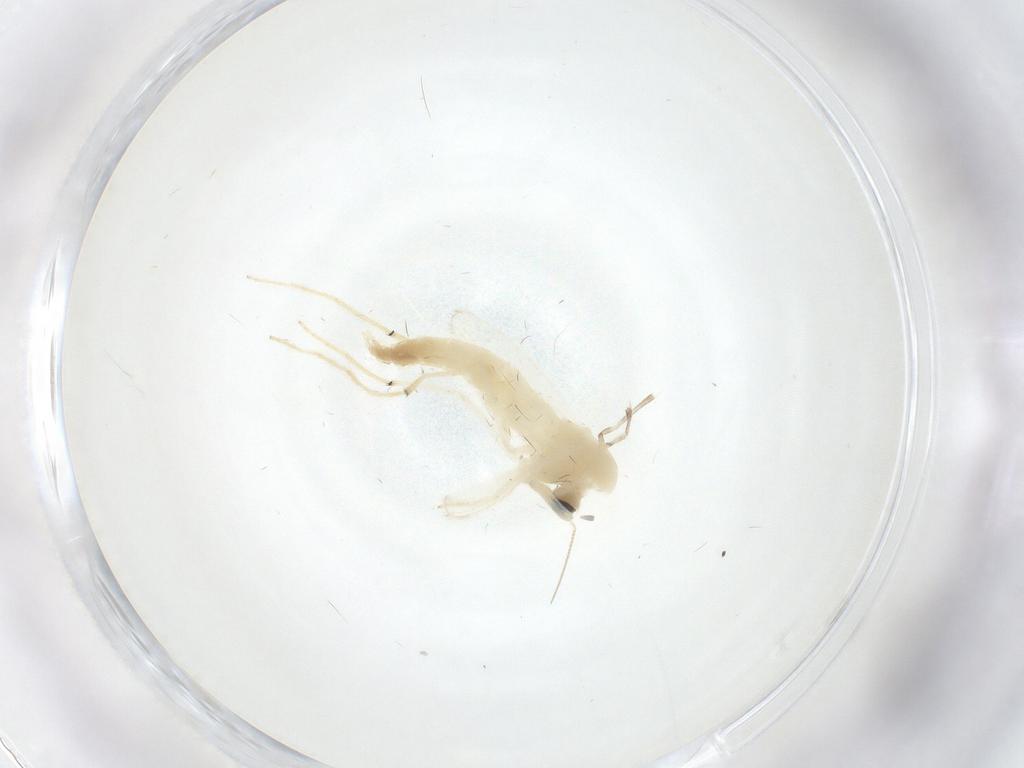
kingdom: Animalia
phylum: Arthropoda
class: Insecta
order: Diptera
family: Chironomidae
